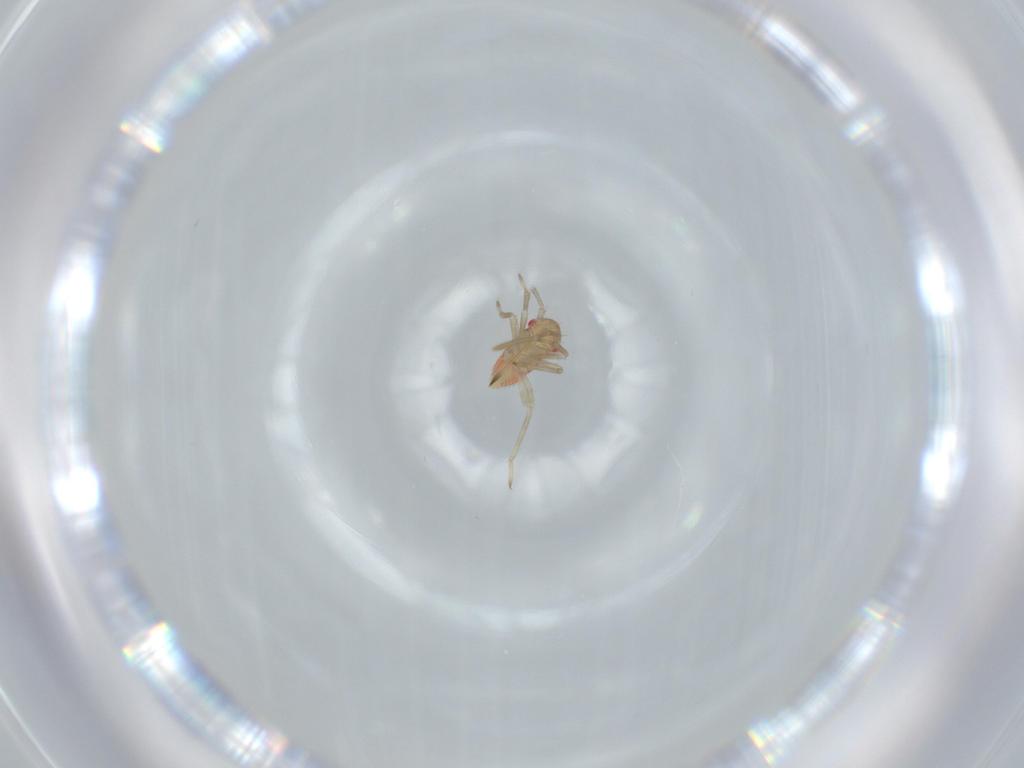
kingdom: Animalia
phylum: Arthropoda
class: Insecta
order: Hemiptera
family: Miridae
